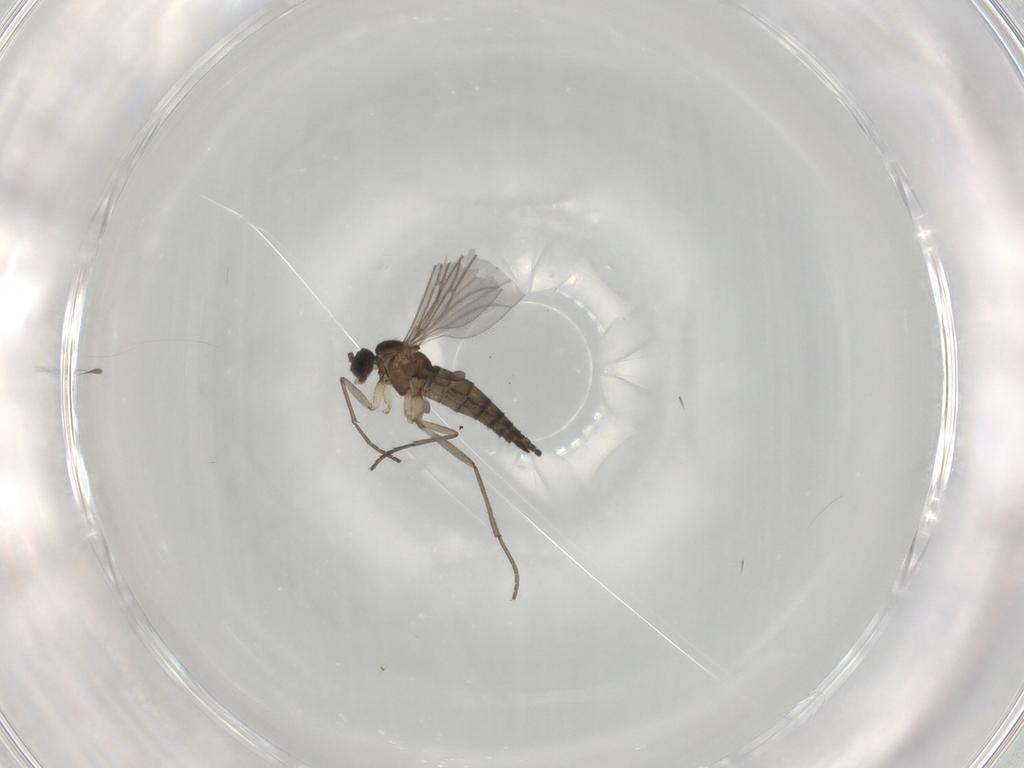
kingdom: Animalia
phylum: Arthropoda
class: Insecta
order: Diptera
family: Sciaridae
